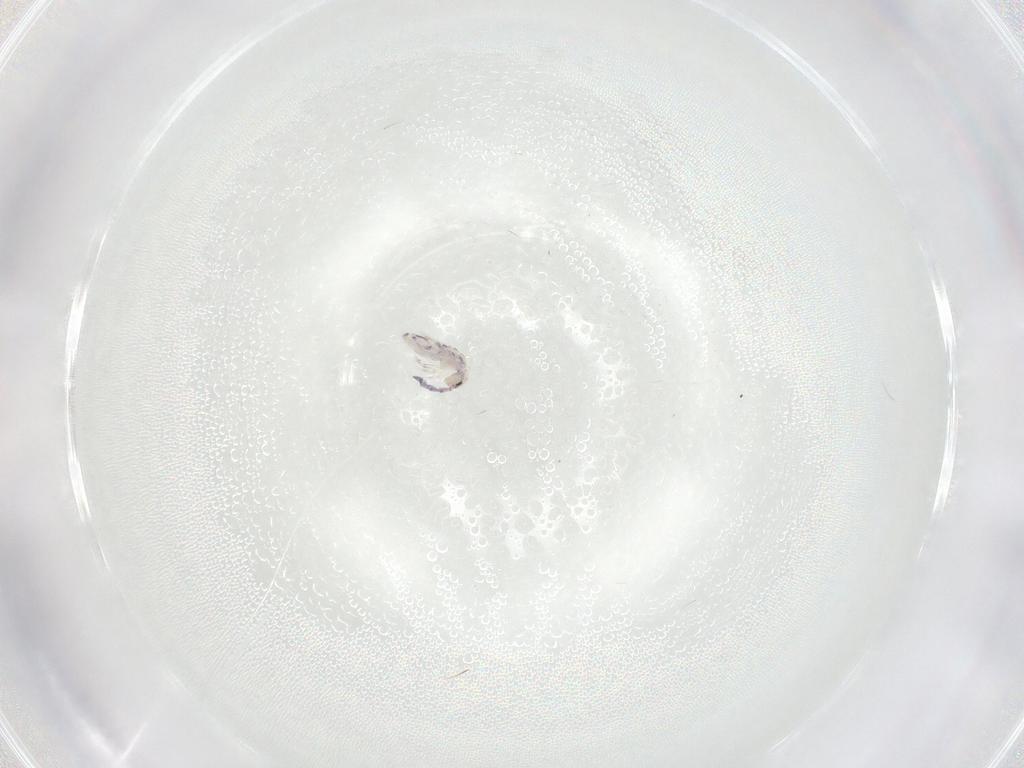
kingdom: Animalia
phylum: Arthropoda
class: Collembola
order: Entomobryomorpha
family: Entomobryidae
